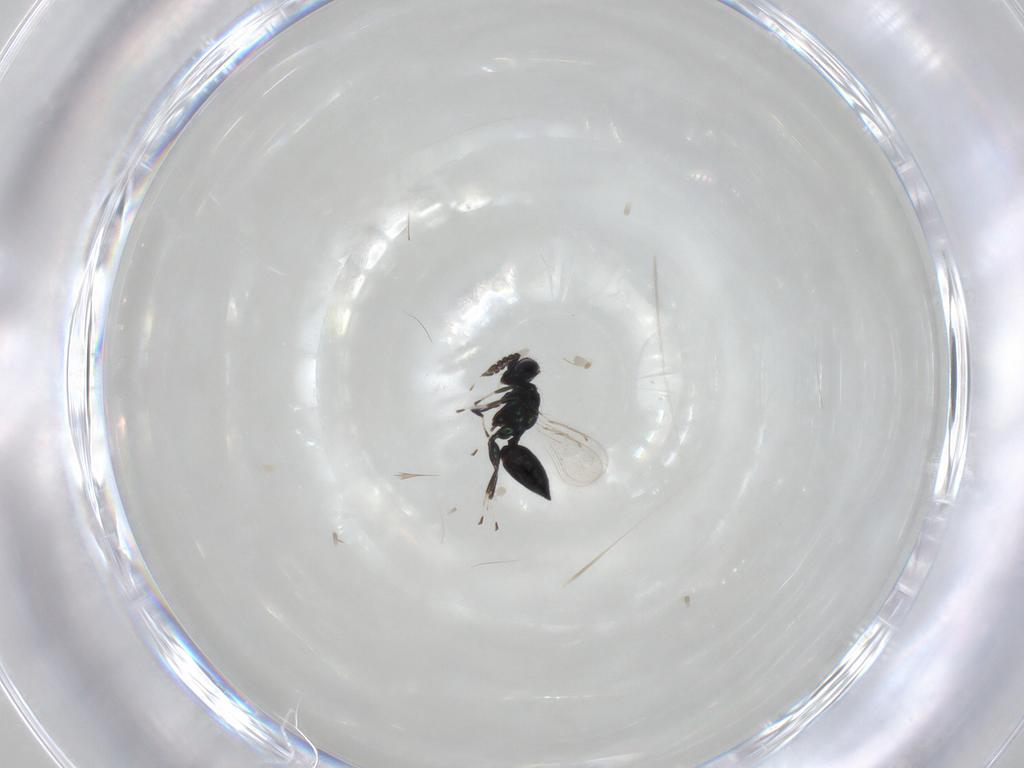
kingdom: Animalia
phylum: Arthropoda
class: Insecta
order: Hymenoptera
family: Eulophidae
